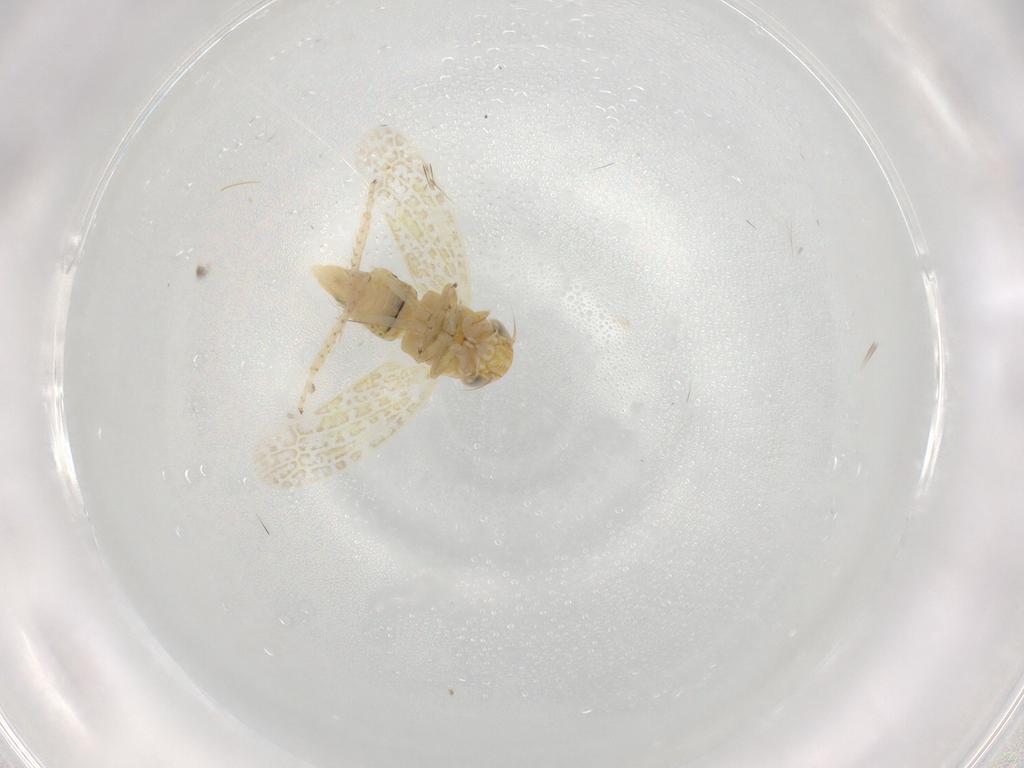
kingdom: Animalia
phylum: Arthropoda
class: Insecta
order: Hemiptera
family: Cicadellidae
